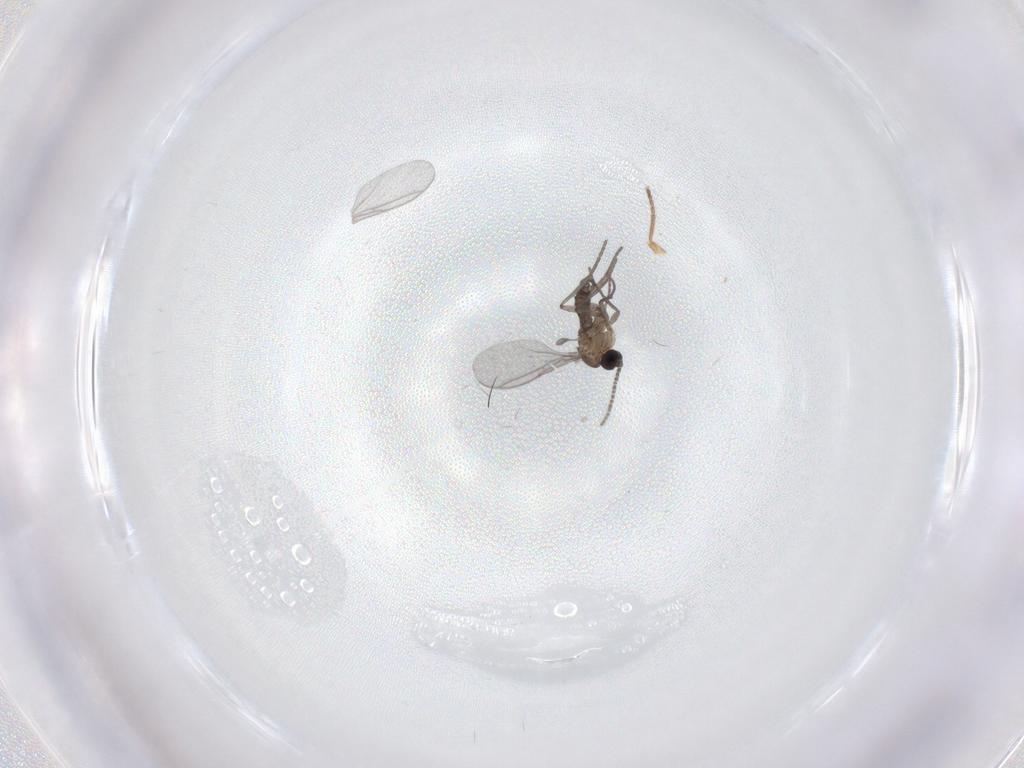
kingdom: Animalia
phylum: Arthropoda
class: Insecta
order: Diptera
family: Sciaridae
